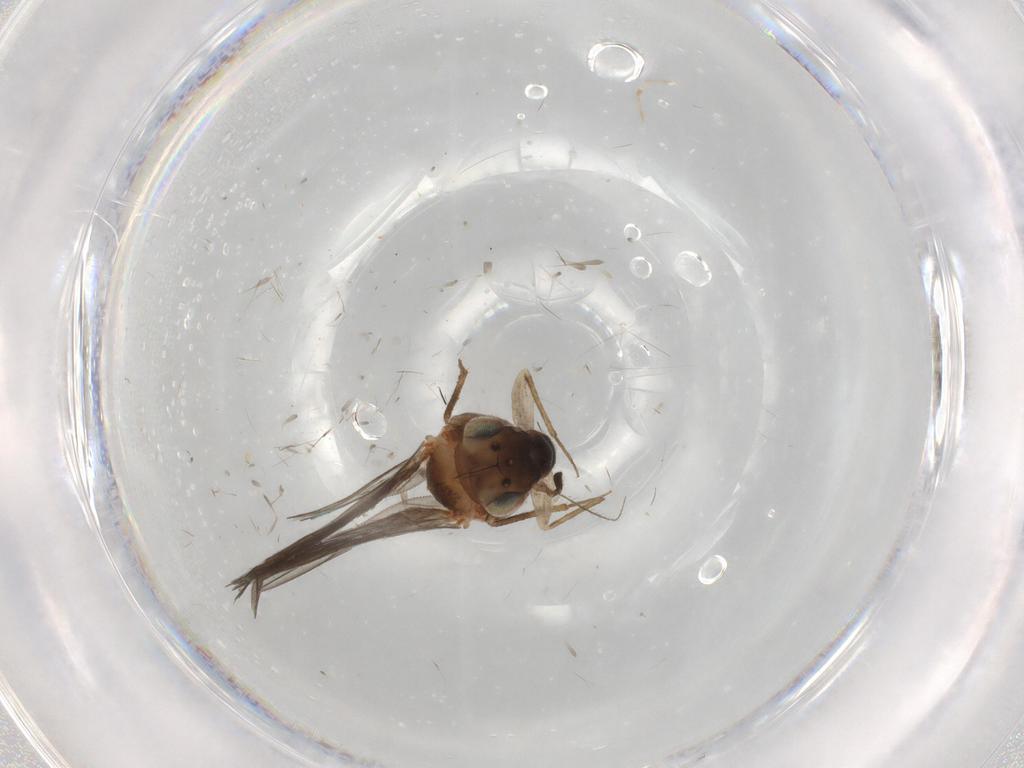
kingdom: Animalia
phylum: Arthropoda
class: Insecta
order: Psocodea
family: Lepidopsocidae
